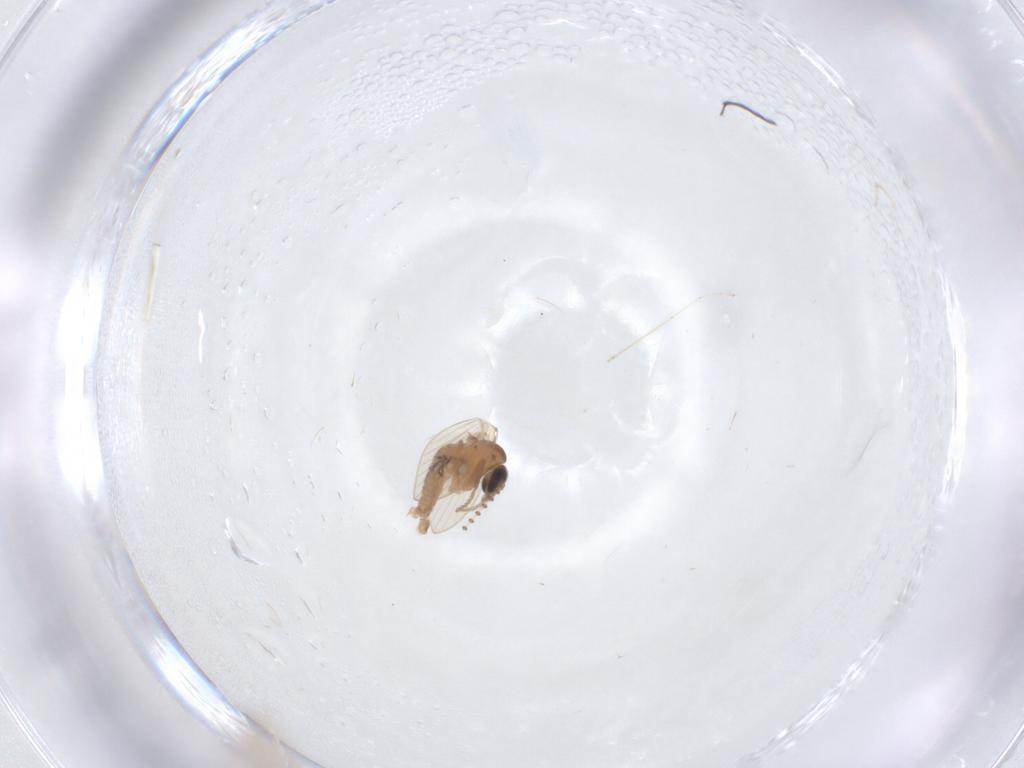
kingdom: Animalia
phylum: Arthropoda
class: Insecta
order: Diptera
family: Cecidomyiidae
